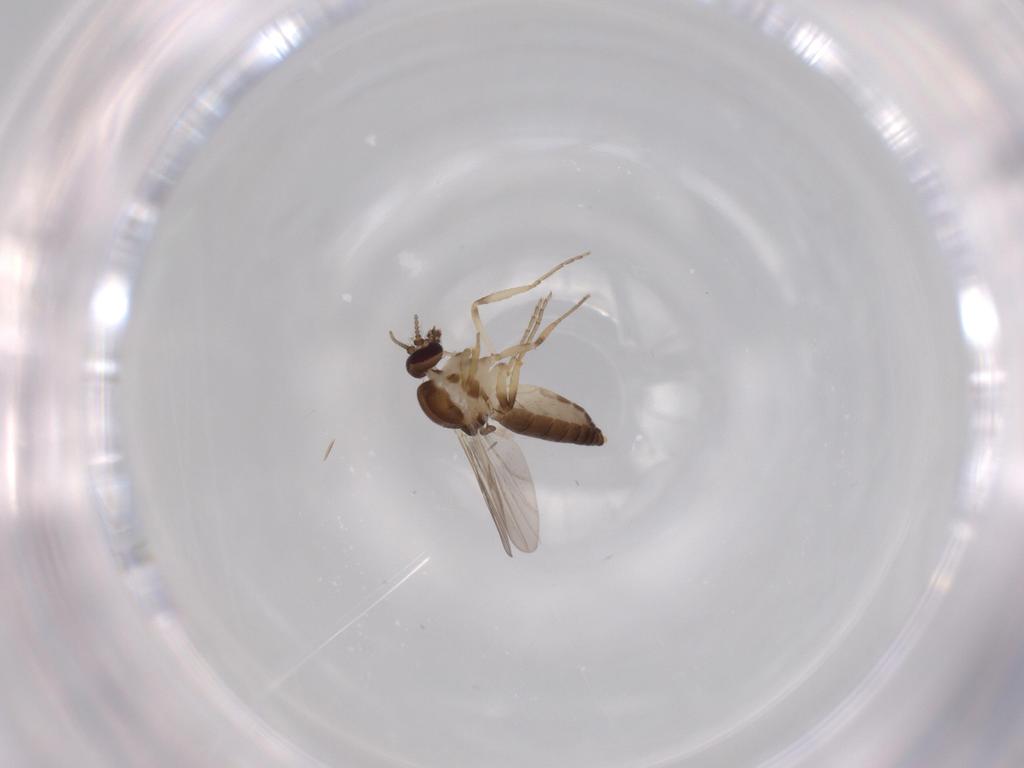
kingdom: Animalia
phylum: Arthropoda
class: Insecta
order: Diptera
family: Ceratopogonidae
